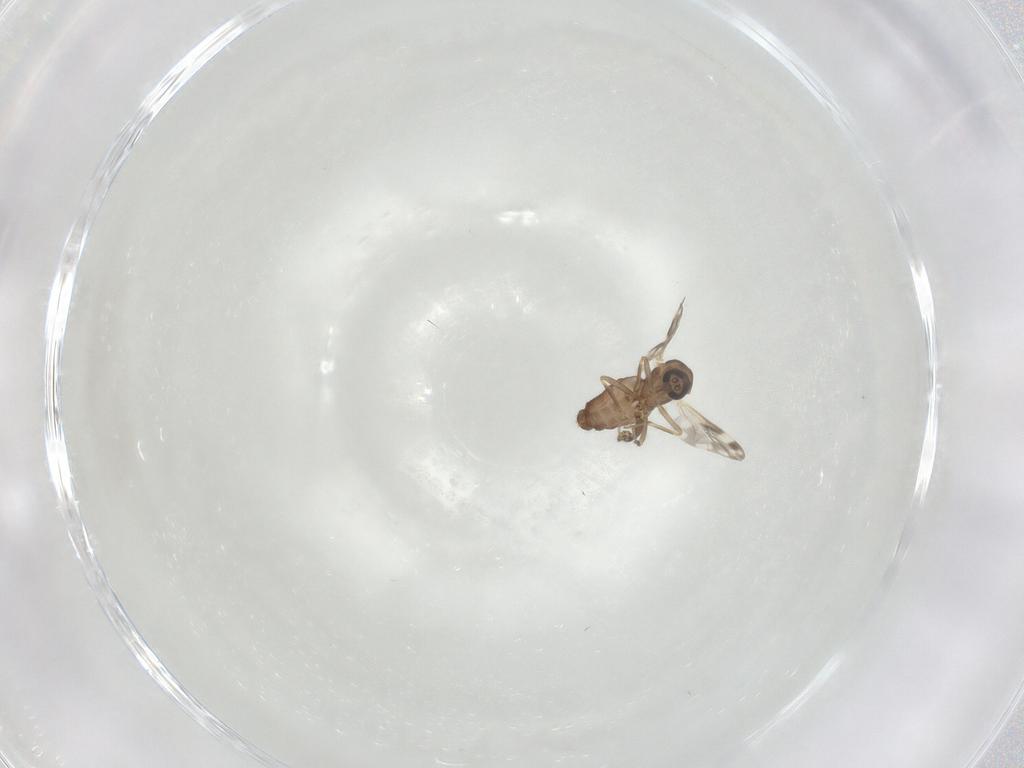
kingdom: Animalia
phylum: Arthropoda
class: Insecta
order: Diptera
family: Ceratopogonidae
